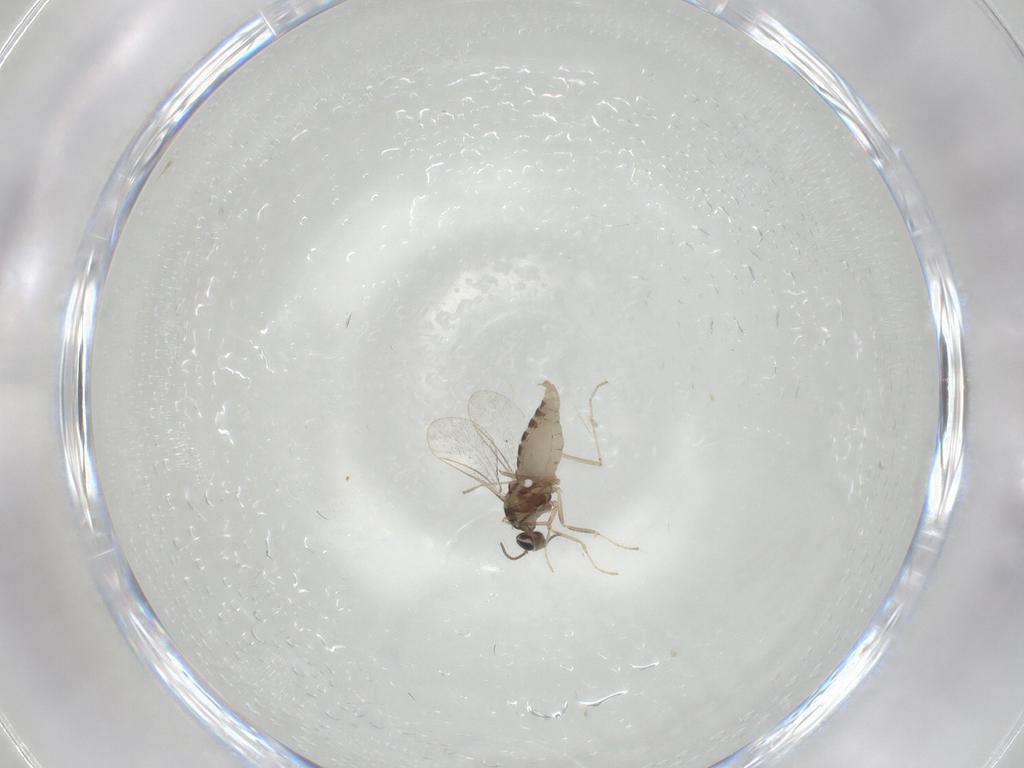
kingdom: Animalia
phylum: Arthropoda
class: Insecta
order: Diptera
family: Cecidomyiidae
